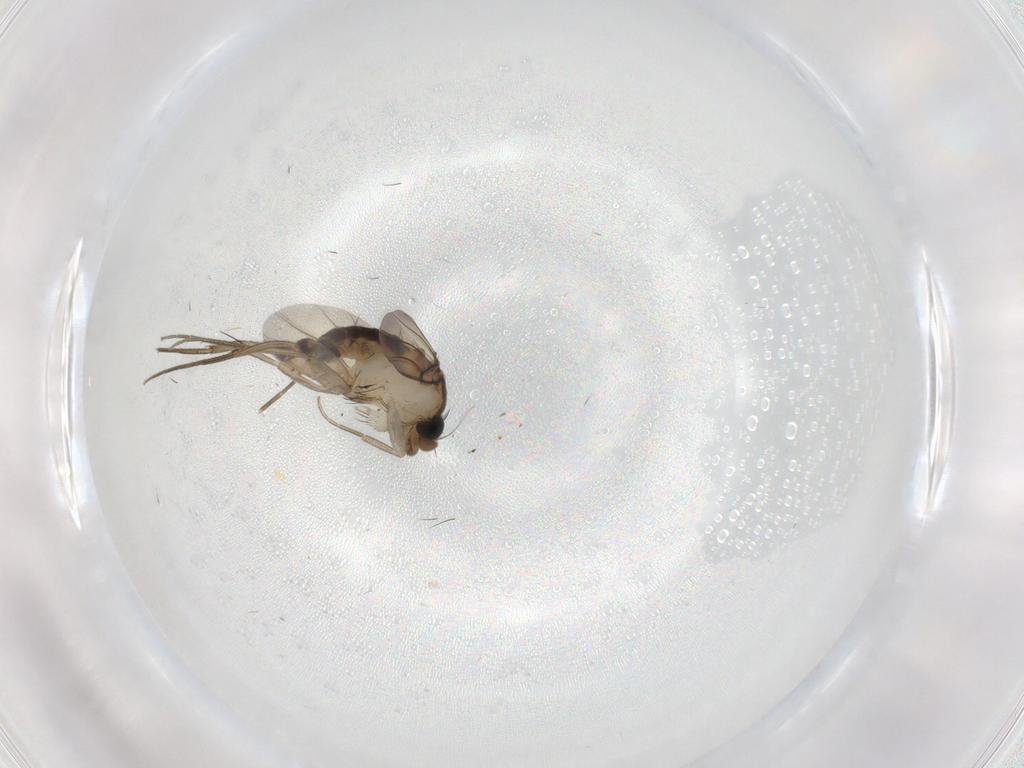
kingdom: Animalia
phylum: Arthropoda
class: Insecta
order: Diptera
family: Phoridae
